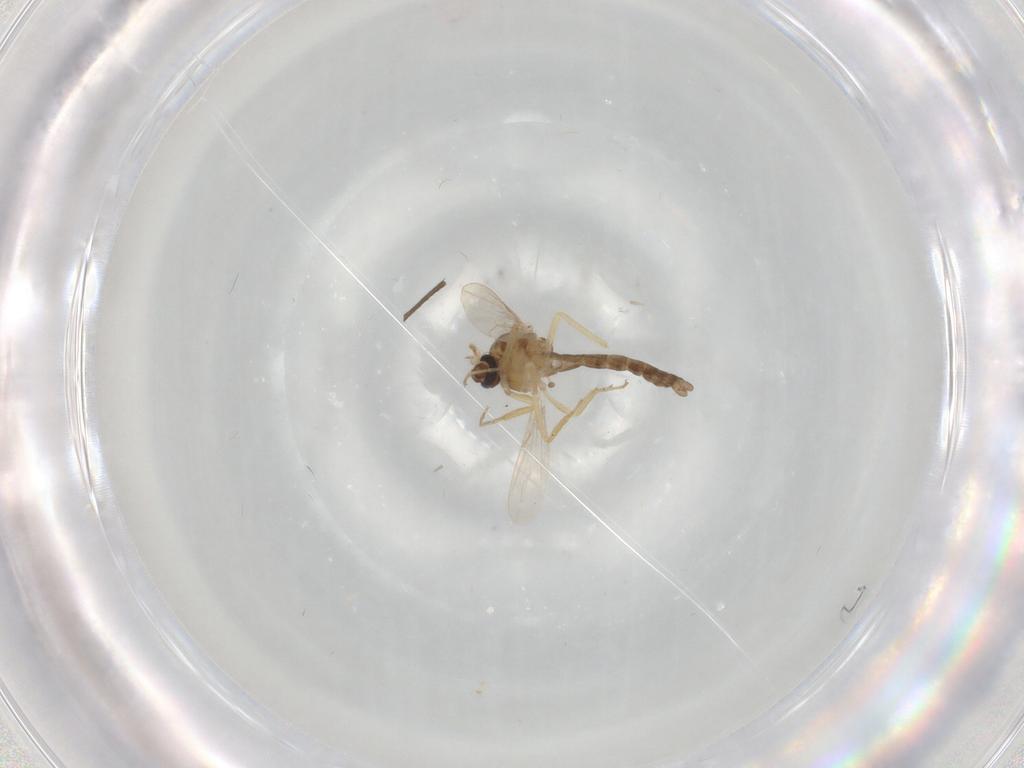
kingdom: Animalia
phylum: Arthropoda
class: Insecta
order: Diptera
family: Ceratopogonidae
